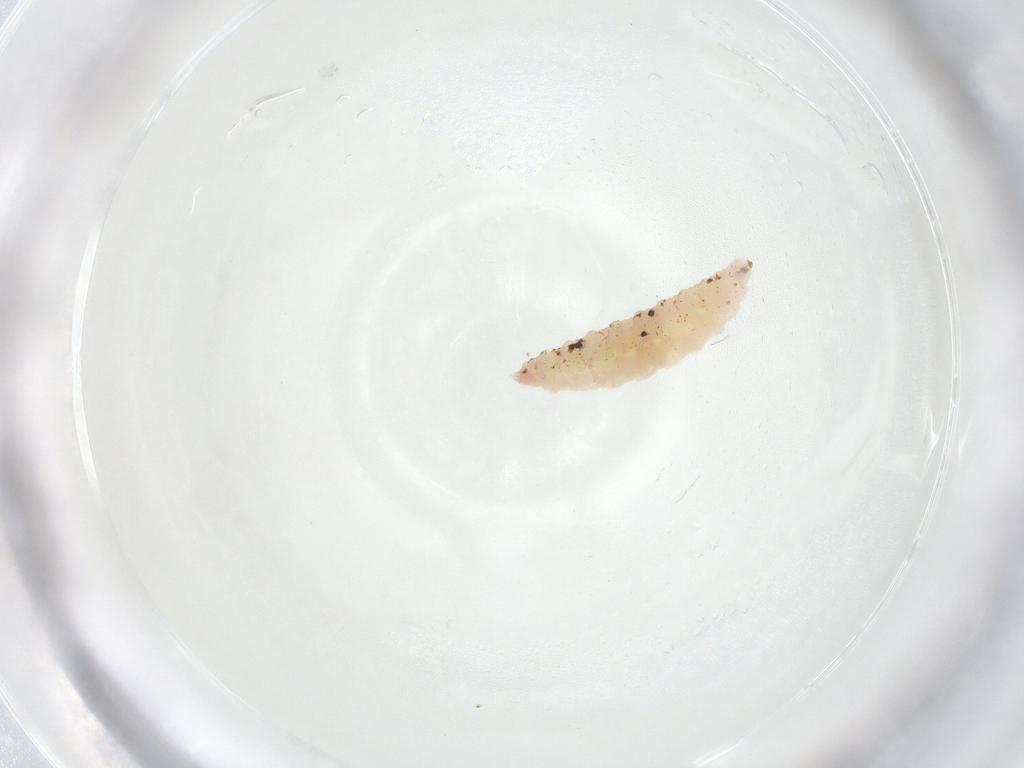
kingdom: Animalia
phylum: Arthropoda
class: Insecta
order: Diptera
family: Cecidomyiidae
